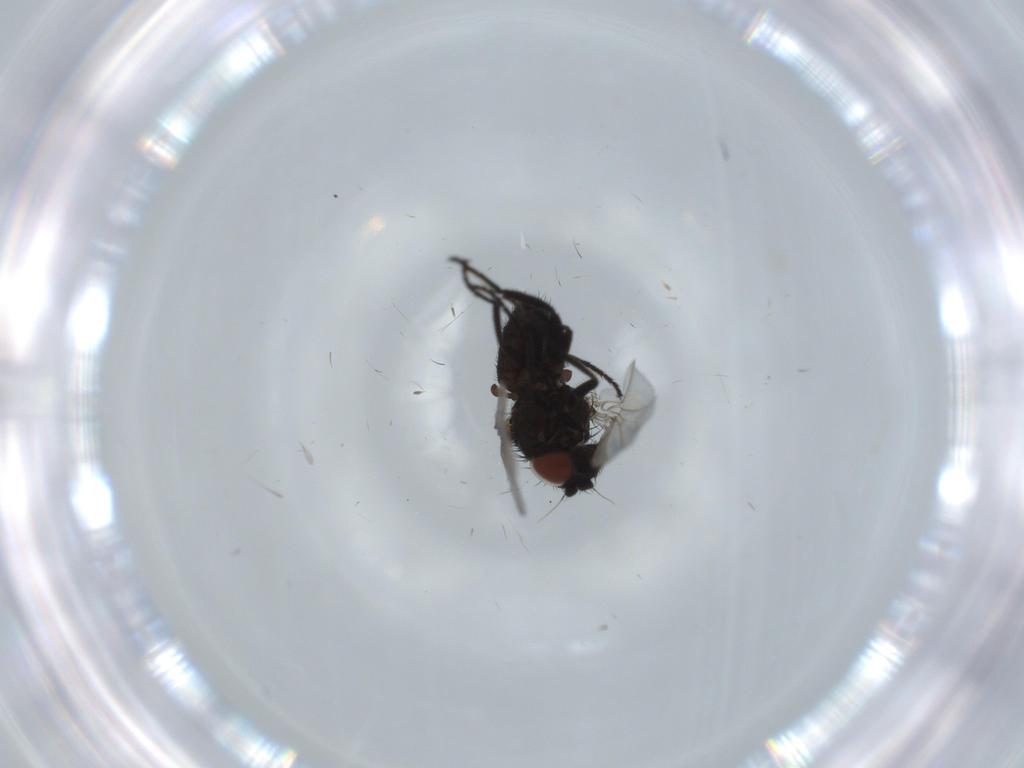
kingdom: Animalia
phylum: Arthropoda
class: Insecta
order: Diptera
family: Milichiidae
